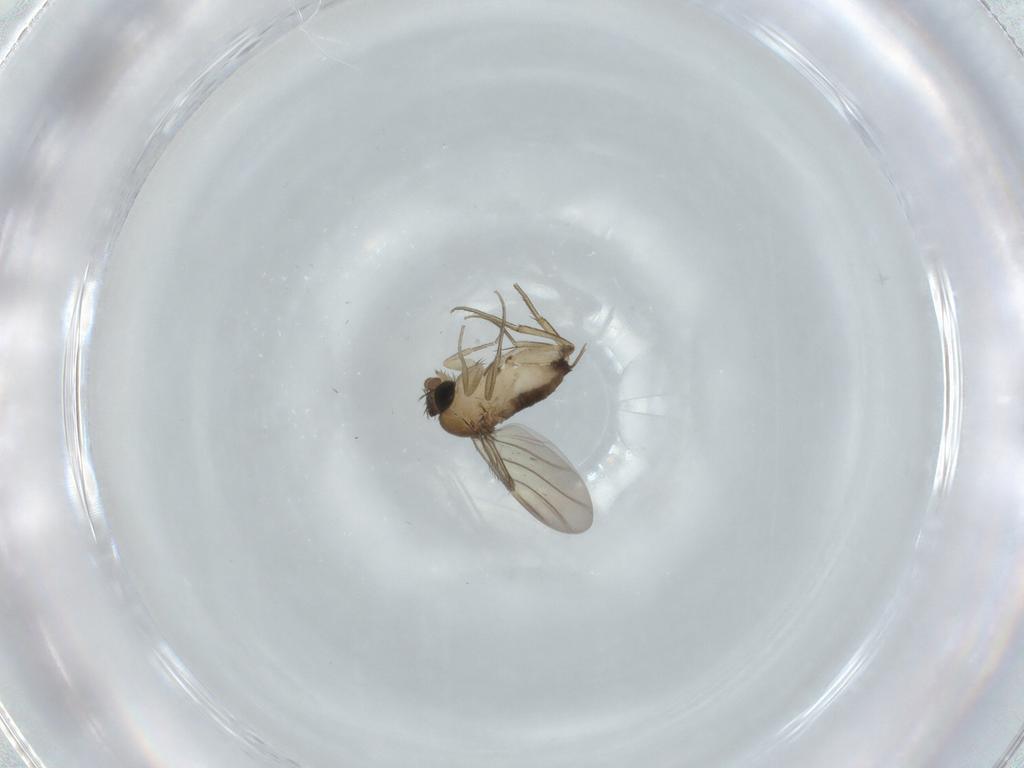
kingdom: Animalia
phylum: Arthropoda
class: Insecta
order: Diptera
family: Phoridae
